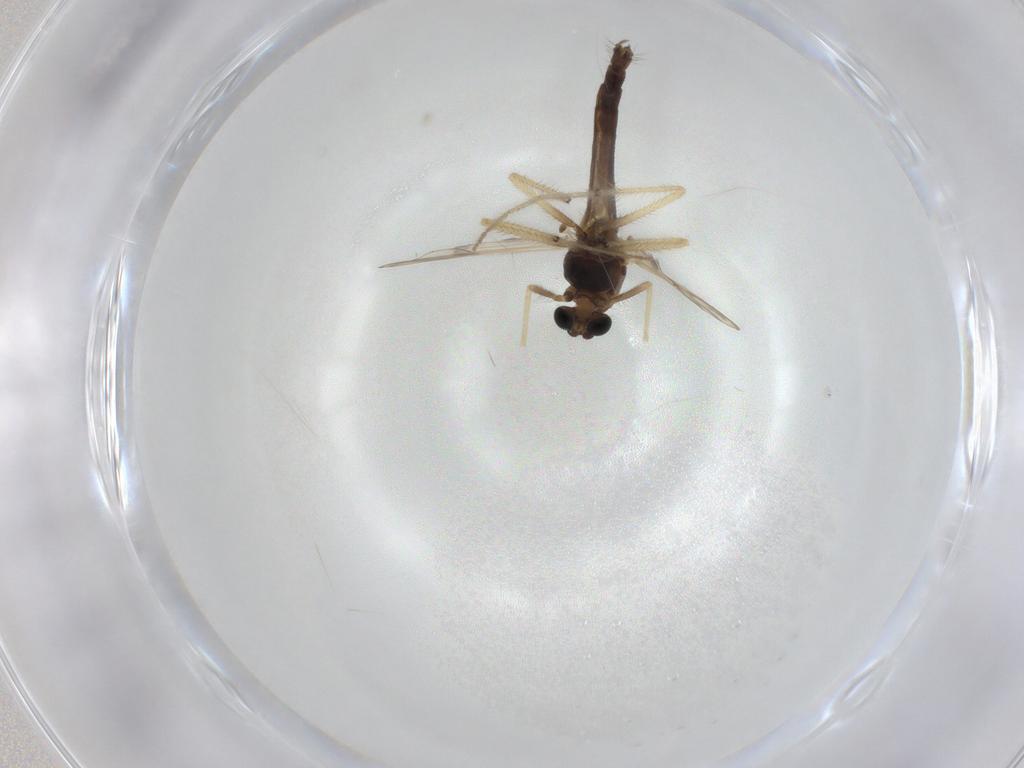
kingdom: Animalia
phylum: Arthropoda
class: Insecta
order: Diptera
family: Chironomidae
